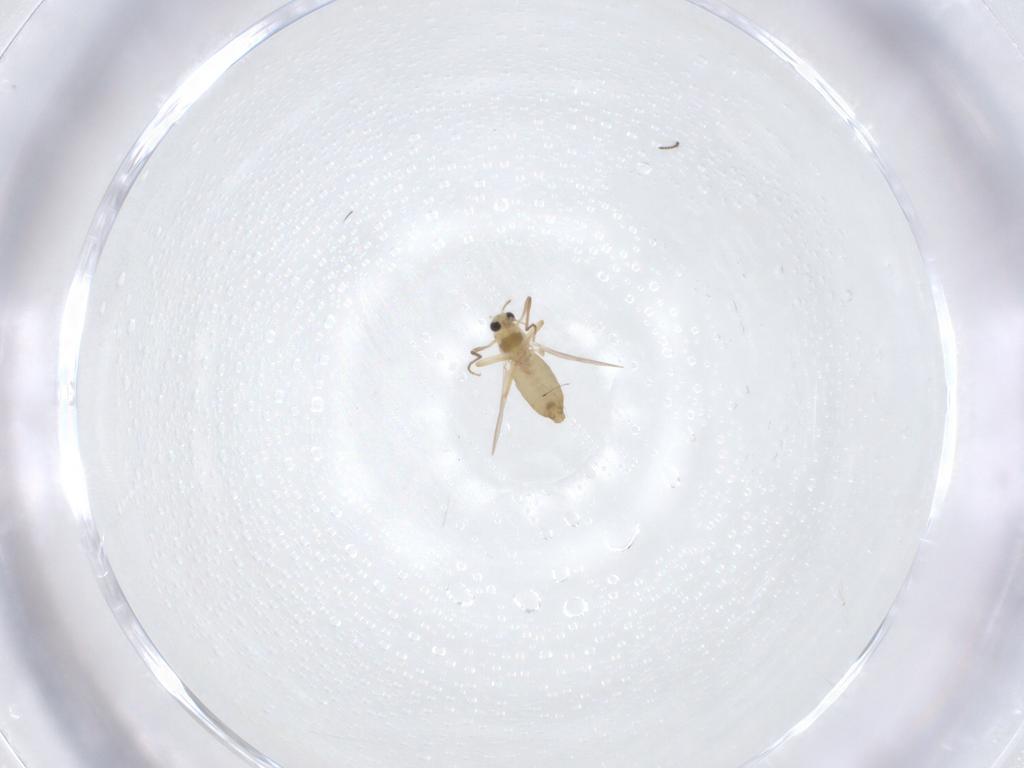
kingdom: Animalia
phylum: Arthropoda
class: Insecta
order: Diptera
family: Chironomidae
